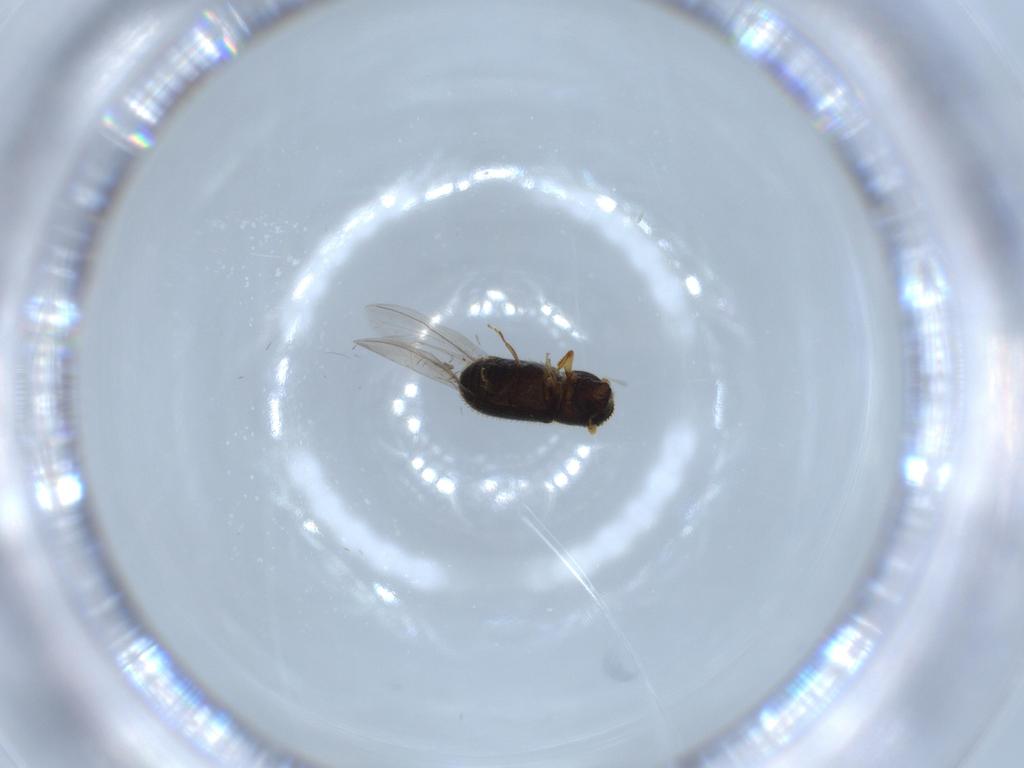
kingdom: Animalia
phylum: Arthropoda
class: Insecta
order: Coleoptera
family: Curculionidae
